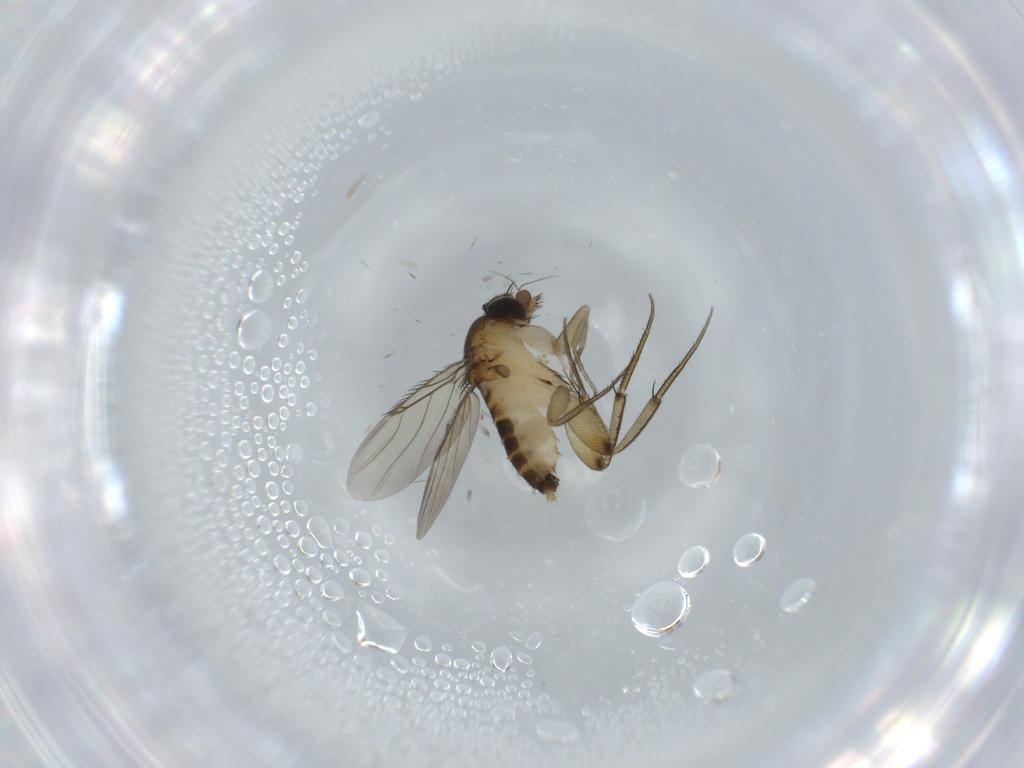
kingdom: Animalia
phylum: Arthropoda
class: Insecta
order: Diptera
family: Phoridae
